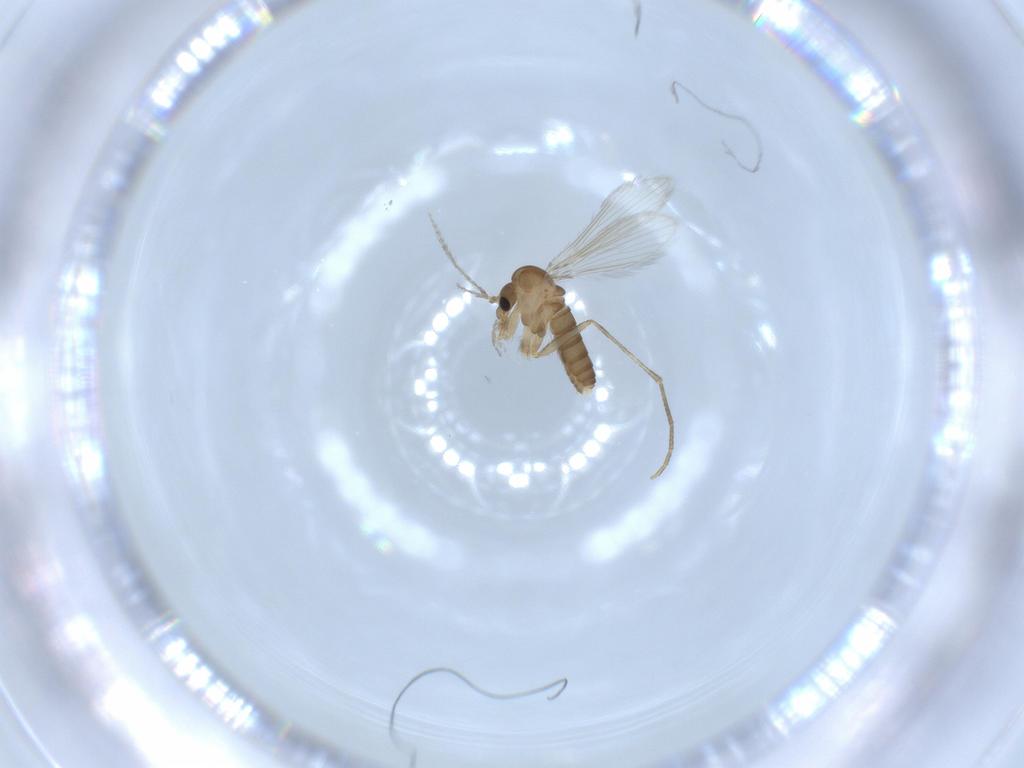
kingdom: Animalia
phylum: Arthropoda
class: Insecta
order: Diptera
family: Psychodidae
